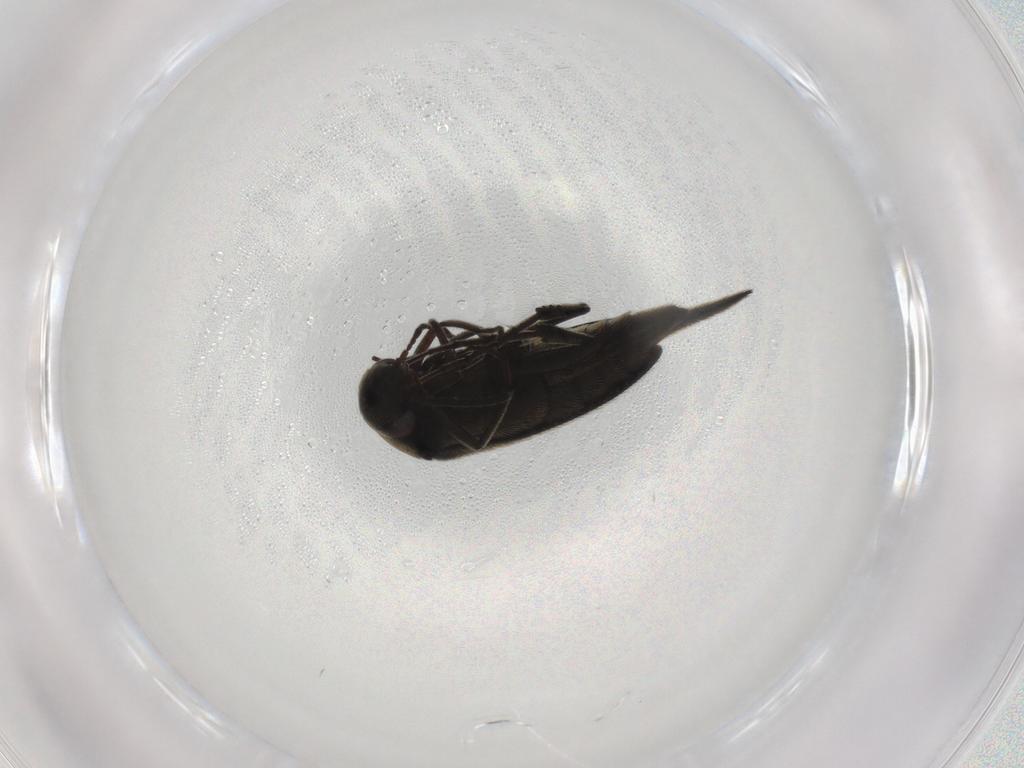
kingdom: Animalia
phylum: Arthropoda
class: Insecta
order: Coleoptera
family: Mordellidae
